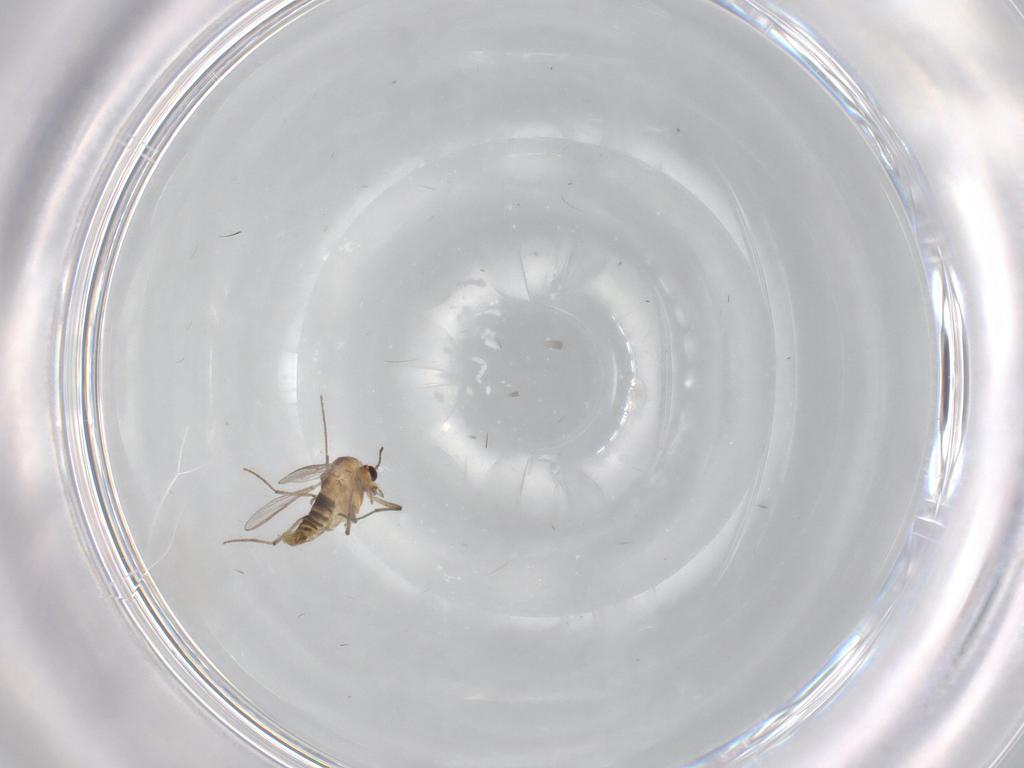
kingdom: Animalia
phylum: Arthropoda
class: Insecta
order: Diptera
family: Chironomidae
